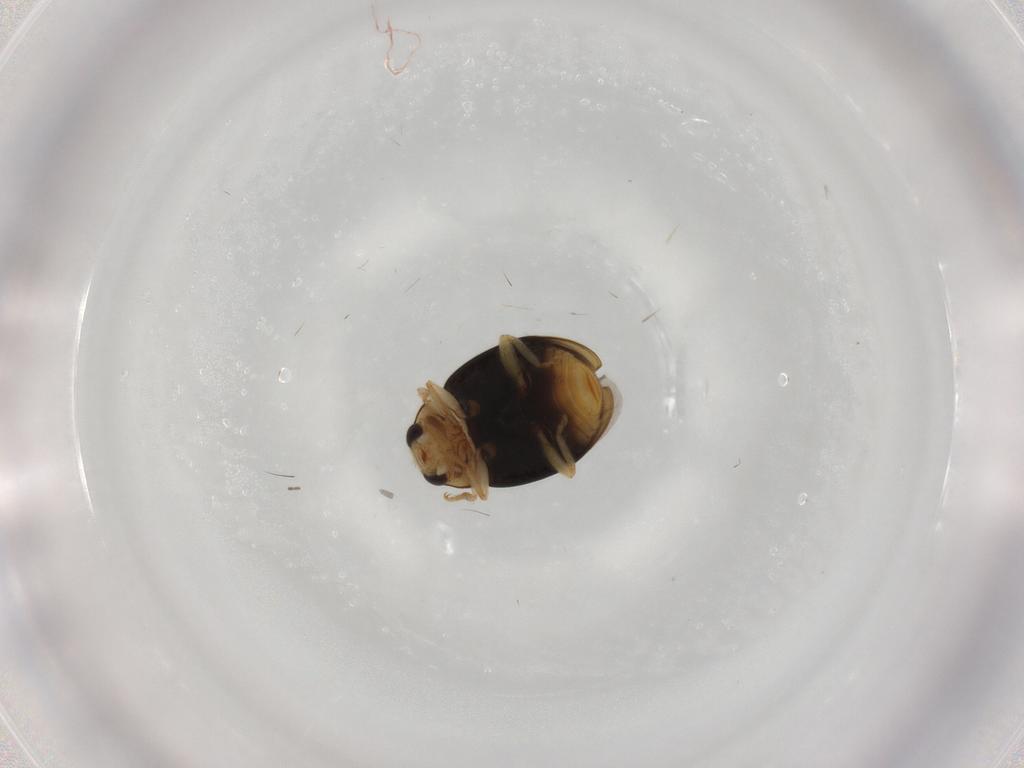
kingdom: Animalia
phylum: Arthropoda
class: Insecta
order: Coleoptera
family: Coccinellidae
